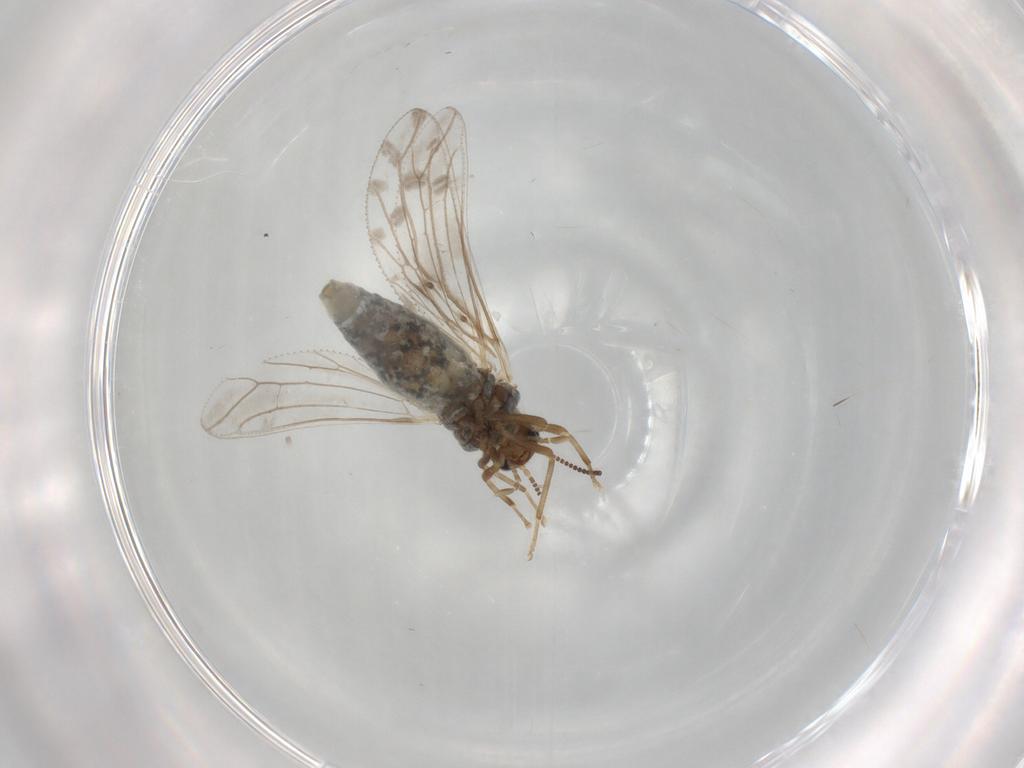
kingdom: Animalia
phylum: Arthropoda
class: Insecta
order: Neuroptera
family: Coniopterygidae
